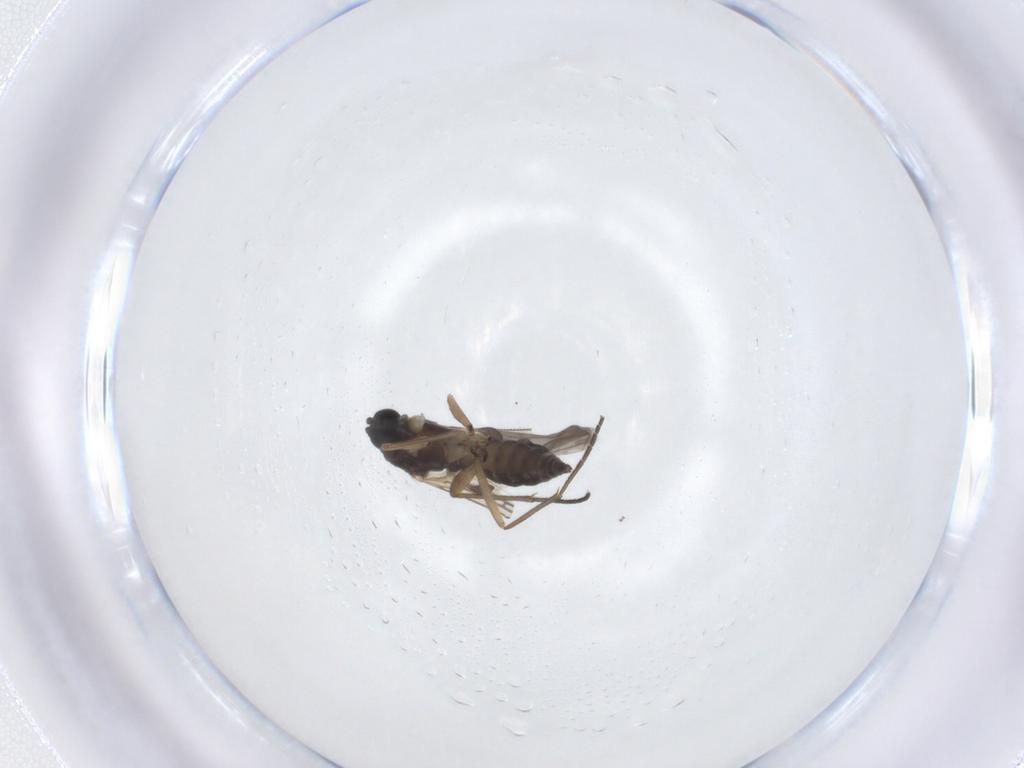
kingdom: Animalia
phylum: Arthropoda
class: Insecta
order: Diptera
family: Sciaridae
